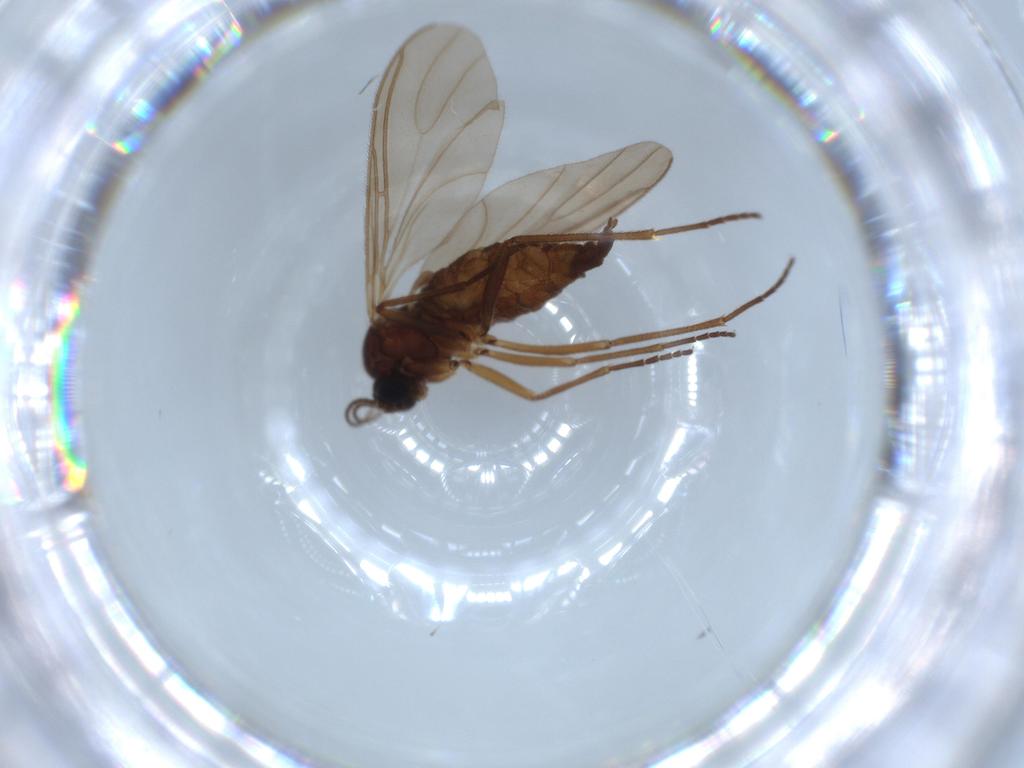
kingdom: Animalia
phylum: Arthropoda
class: Insecta
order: Diptera
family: Sciaridae
